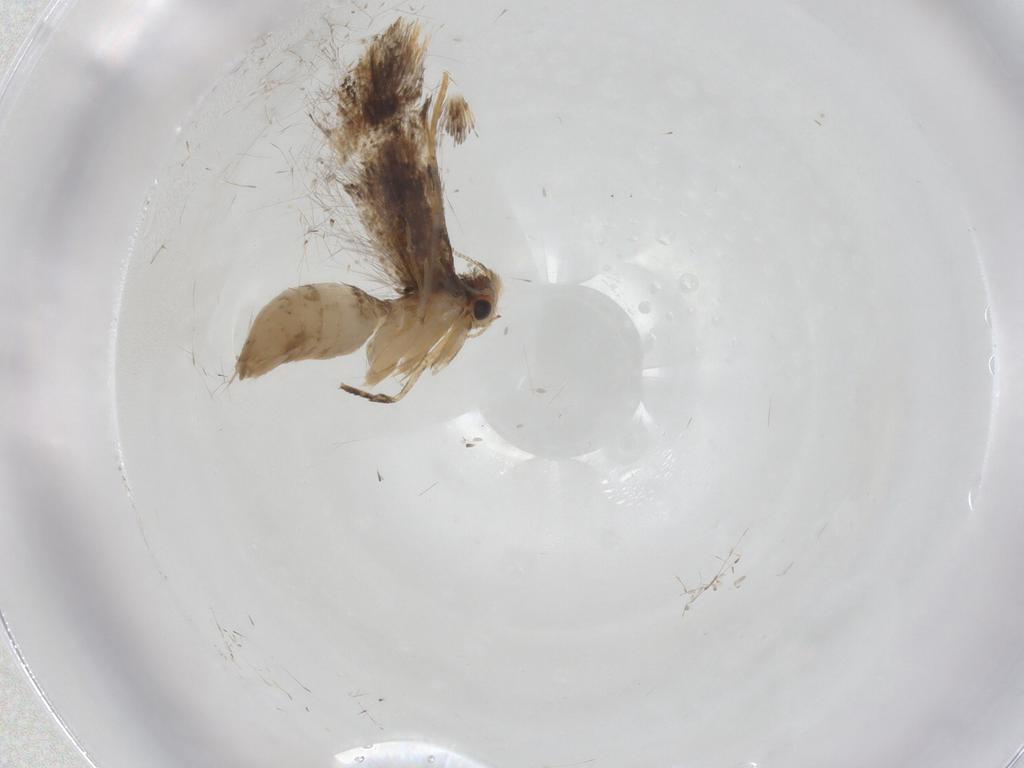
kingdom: Animalia
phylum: Arthropoda
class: Insecta
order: Lepidoptera
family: Tineidae
